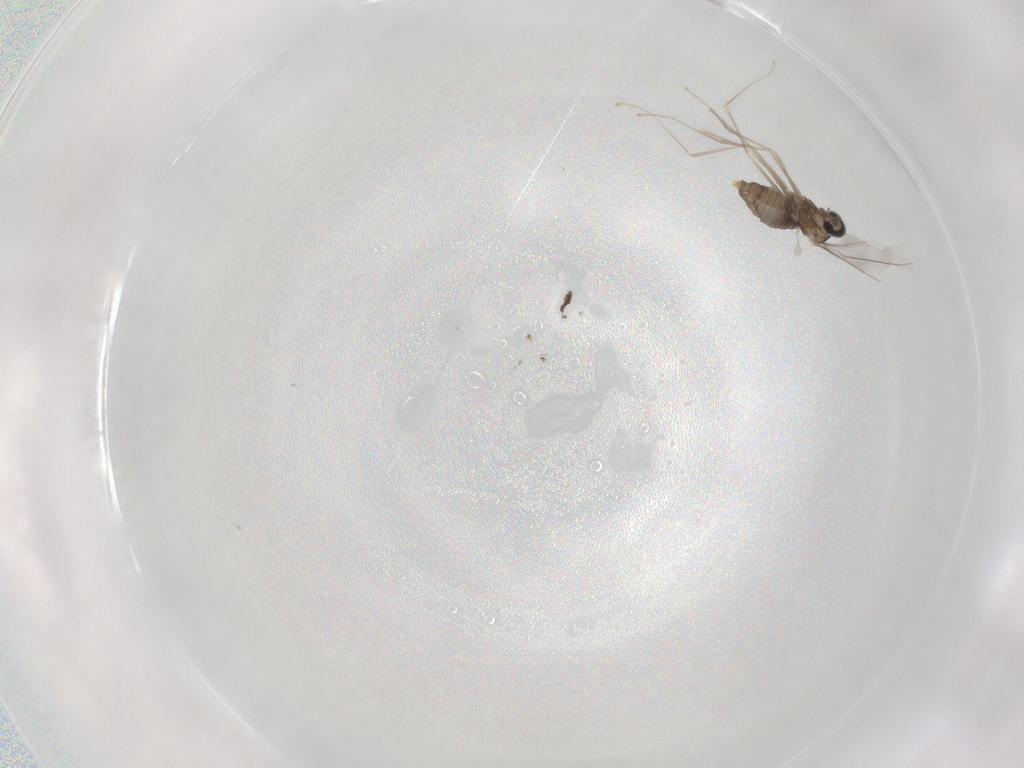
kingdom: Animalia
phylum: Arthropoda
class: Insecta
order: Diptera
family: Cecidomyiidae
